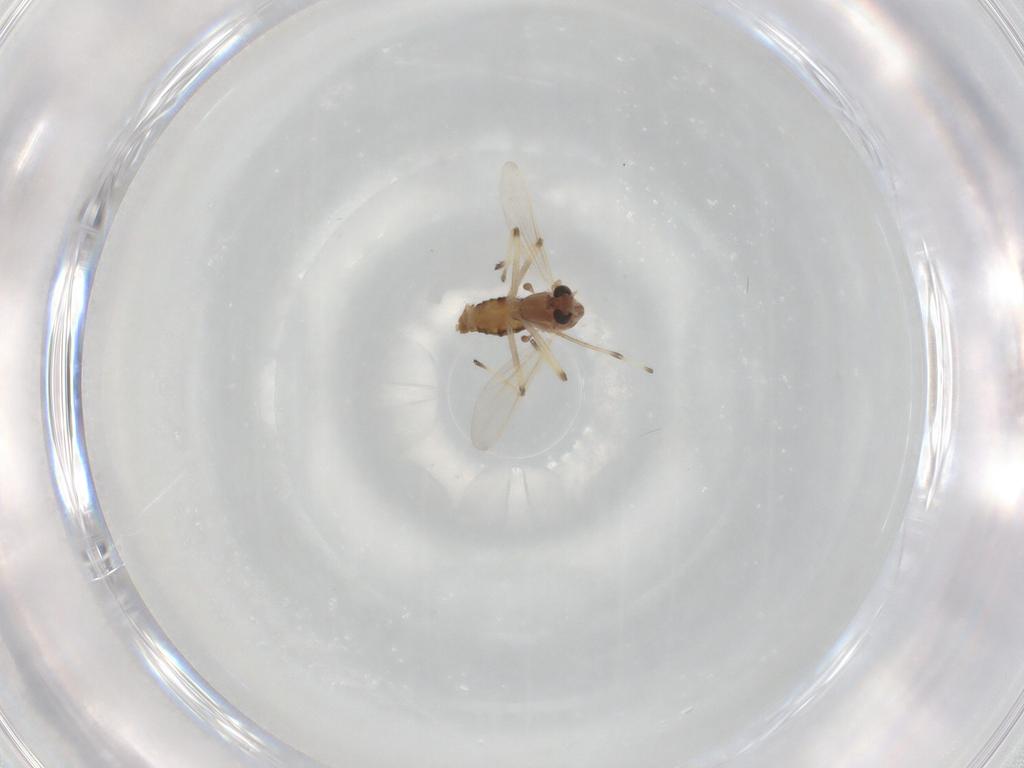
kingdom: Animalia
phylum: Arthropoda
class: Insecta
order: Diptera
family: Chironomidae
